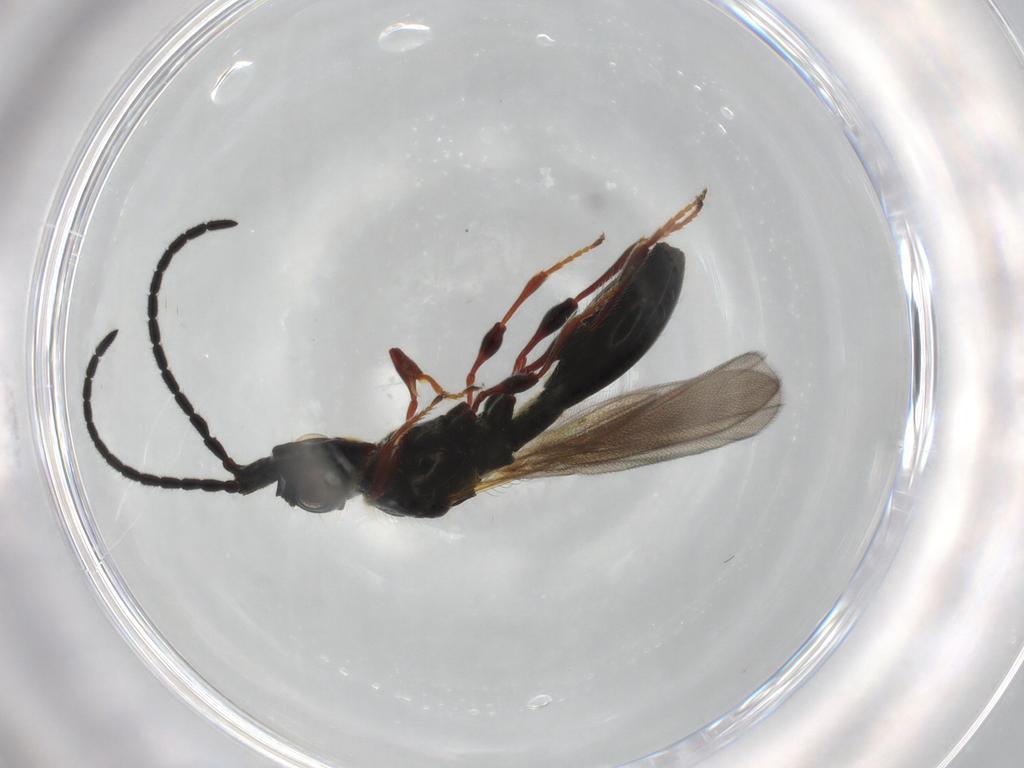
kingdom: Animalia
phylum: Arthropoda
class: Insecta
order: Hymenoptera
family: Diapriidae
